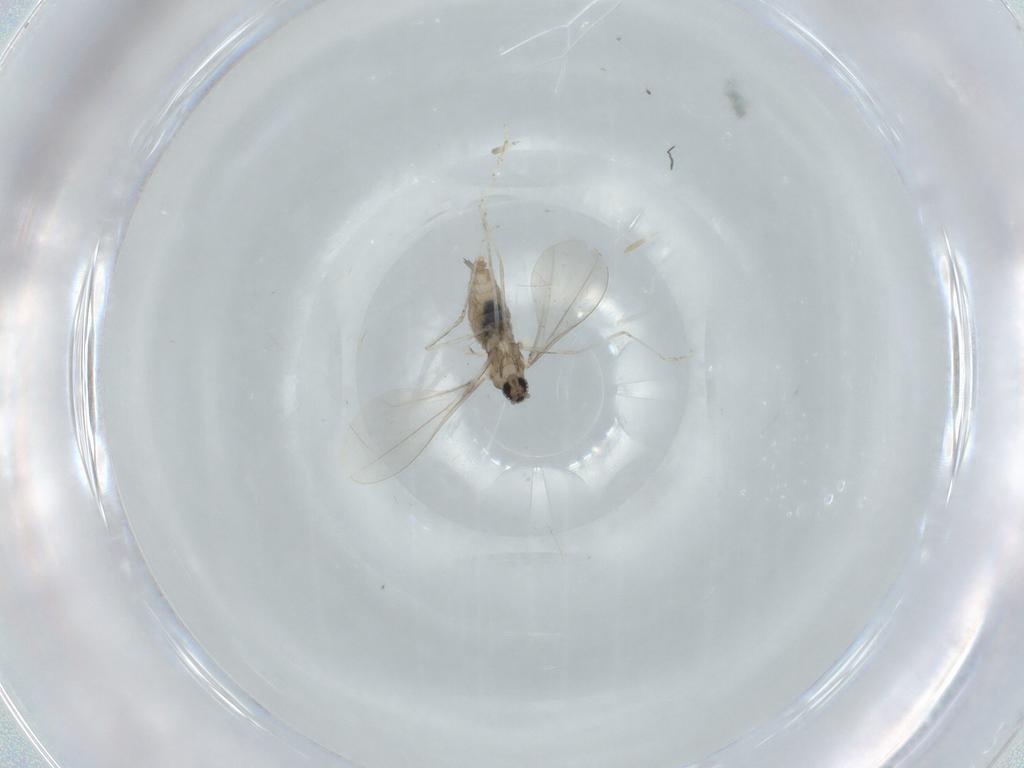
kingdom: Animalia
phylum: Arthropoda
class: Insecta
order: Diptera
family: Cecidomyiidae
